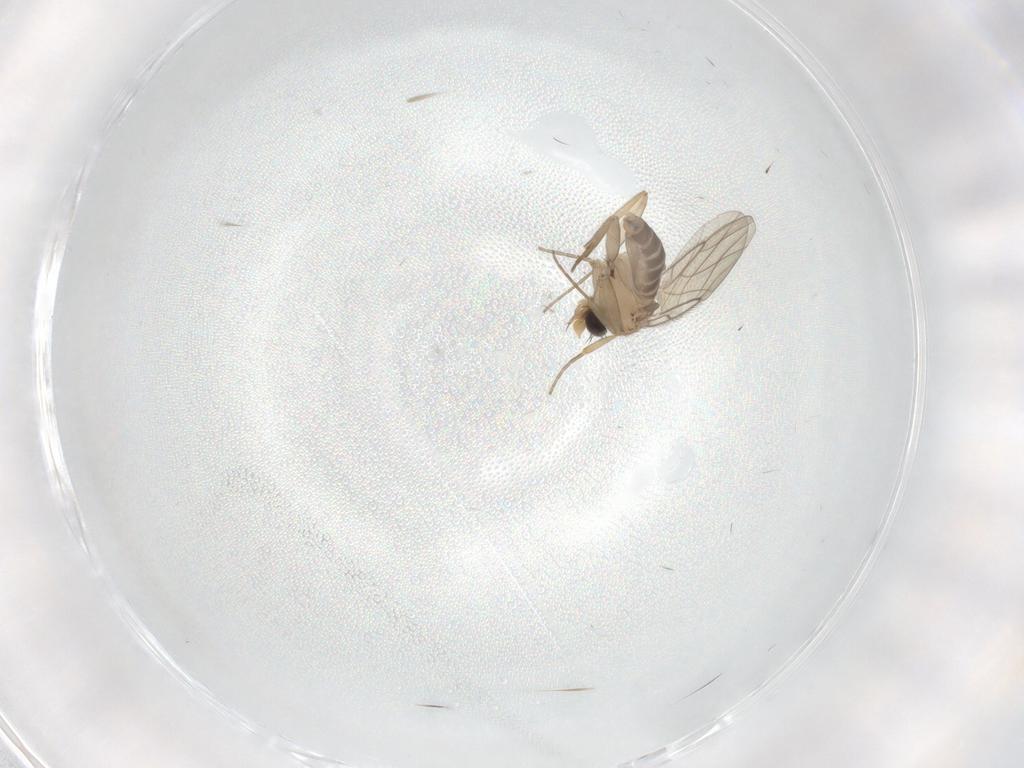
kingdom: Animalia
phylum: Arthropoda
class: Insecta
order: Diptera
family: Phoridae
